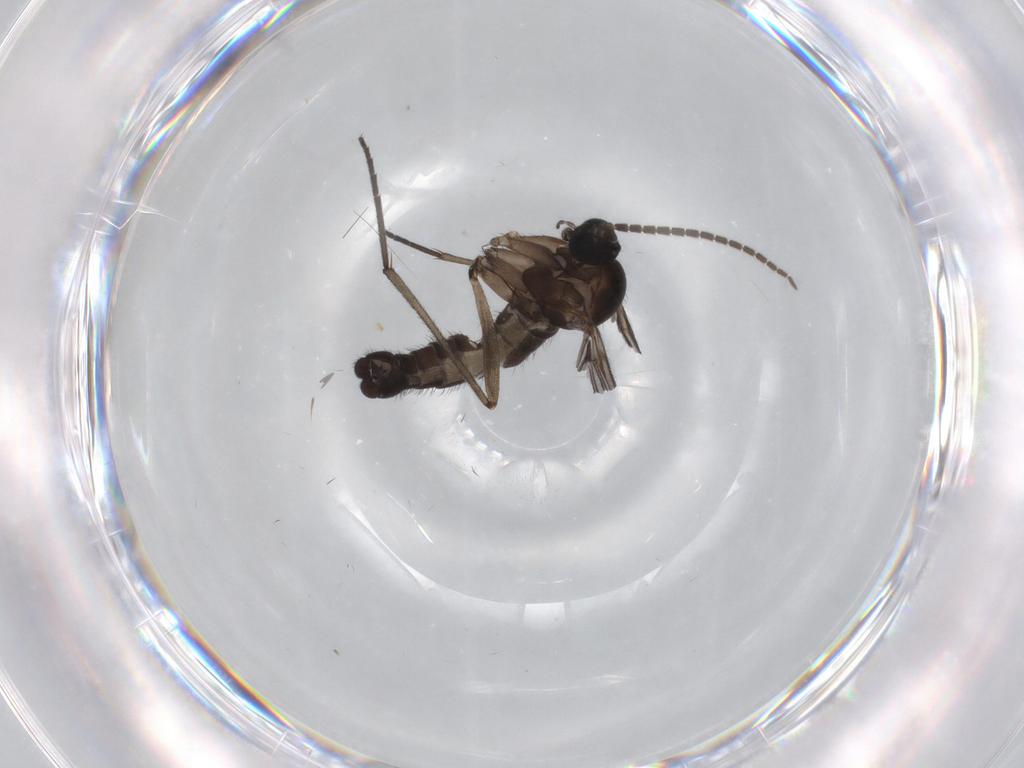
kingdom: Animalia
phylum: Arthropoda
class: Insecta
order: Diptera
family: Sciaridae
